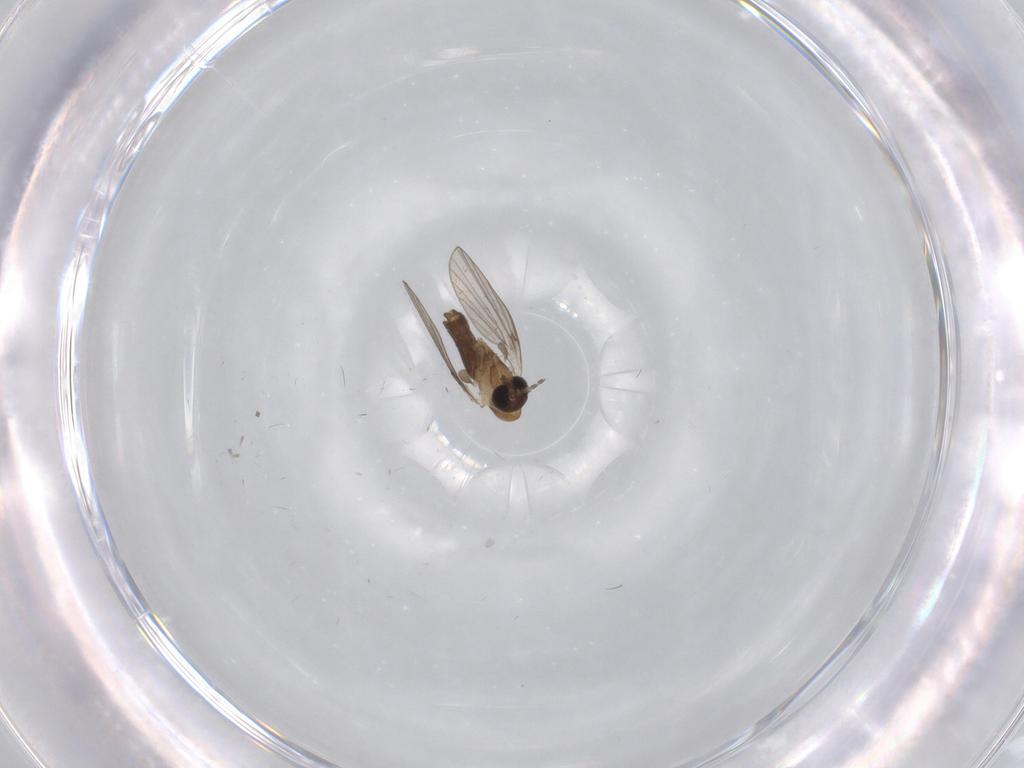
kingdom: Animalia
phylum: Arthropoda
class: Insecta
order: Diptera
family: Psychodidae
